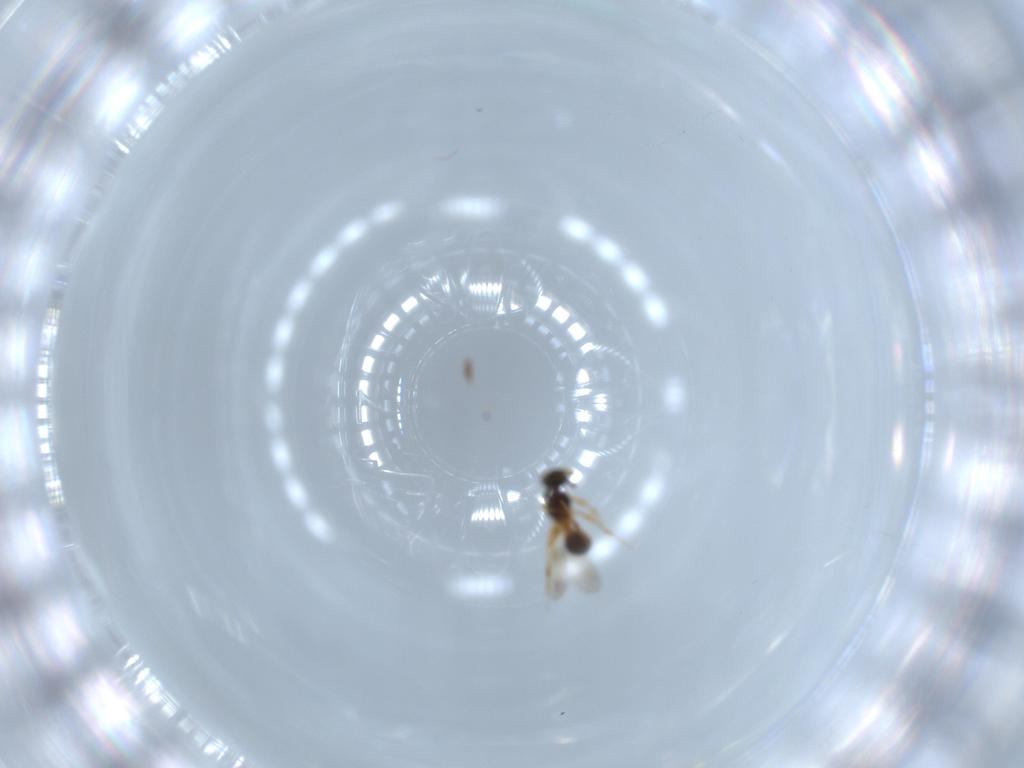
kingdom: Animalia
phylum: Arthropoda
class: Insecta
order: Hymenoptera
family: Platygastridae
